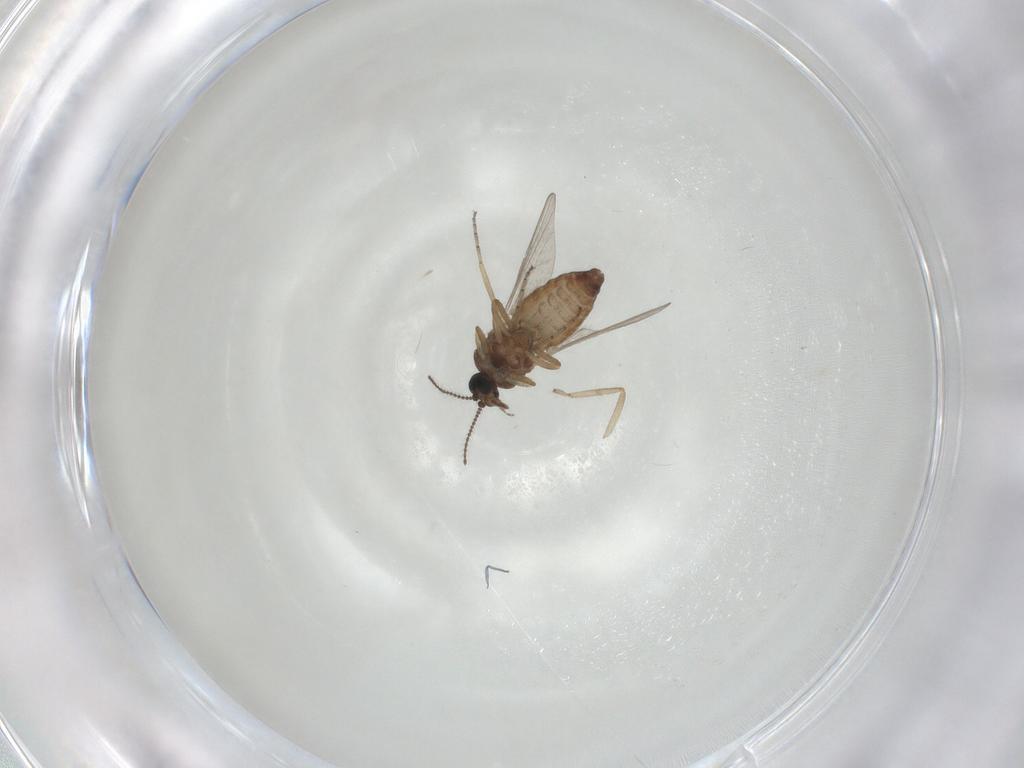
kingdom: Animalia
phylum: Arthropoda
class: Insecta
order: Diptera
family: Ceratopogonidae
